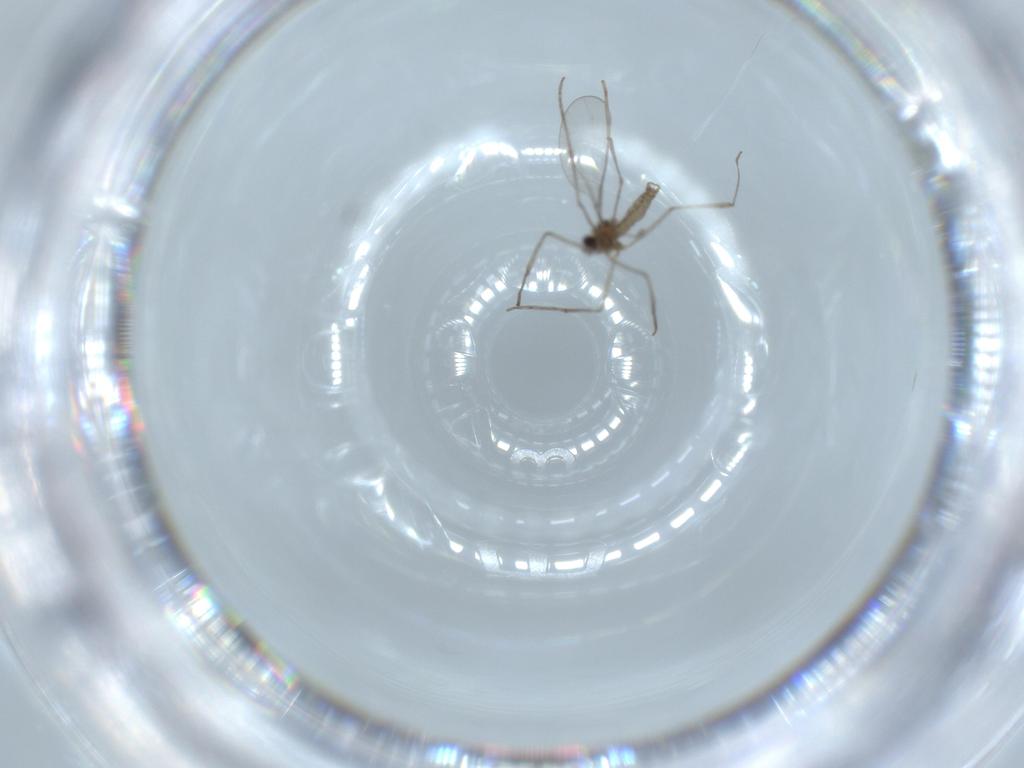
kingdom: Animalia
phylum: Arthropoda
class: Insecta
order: Diptera
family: Cecidomyiidae
